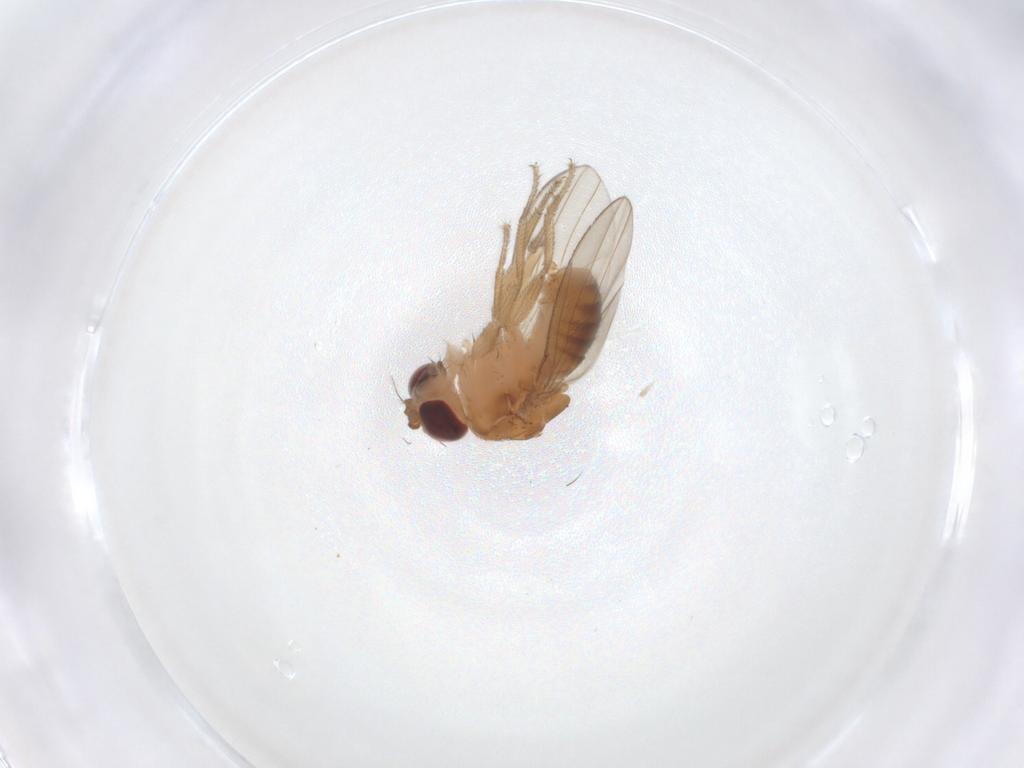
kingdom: Animalia
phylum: Arthropoda
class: Insecta
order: Diptera
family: Drosophilidae
